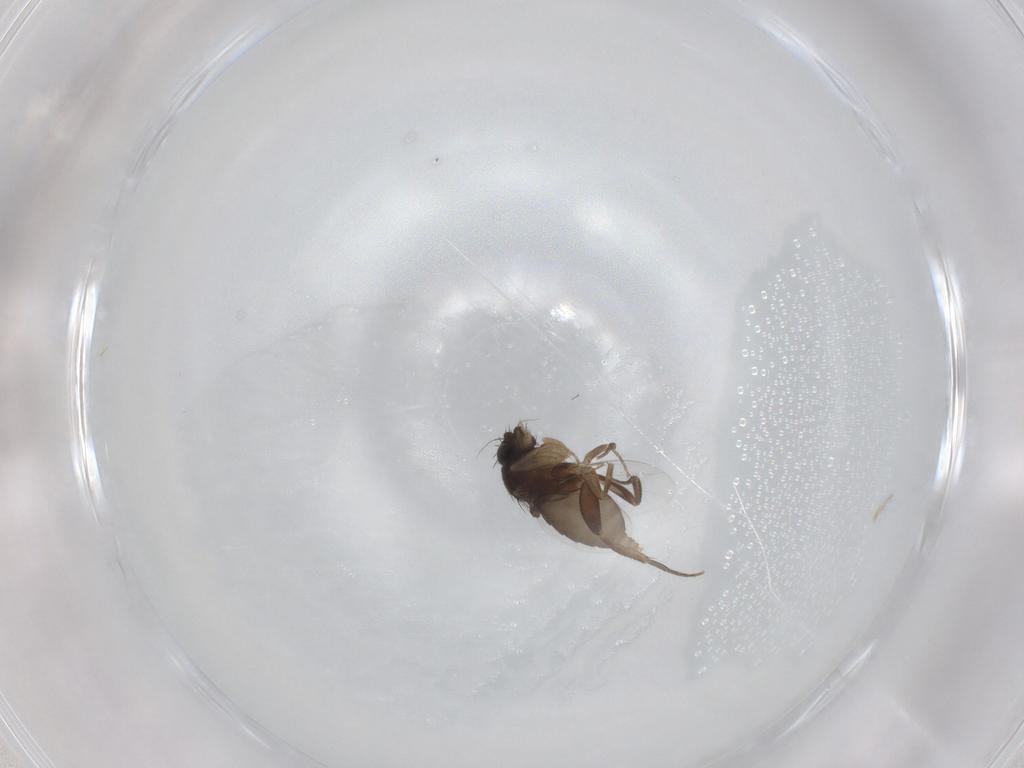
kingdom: Animalia
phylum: Arthropoda
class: Insecta
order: Diptera
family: Phoridae
